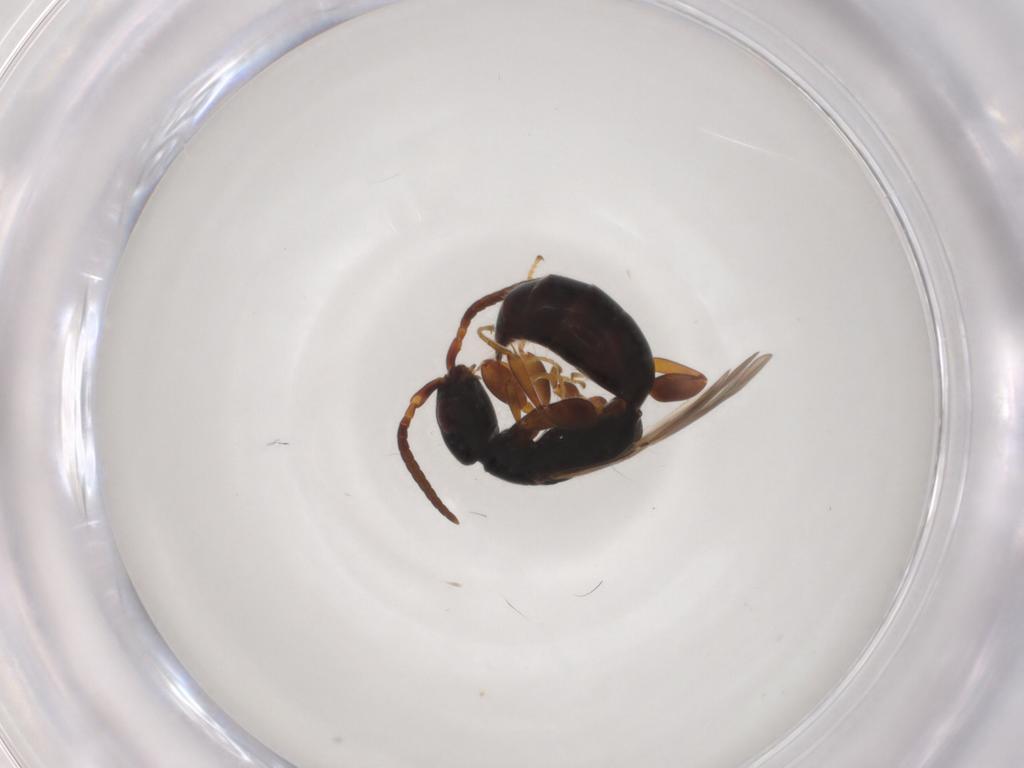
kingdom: Animalia
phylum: Arthropoda
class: Insecta
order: Hymenoptera
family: Bethylidae
